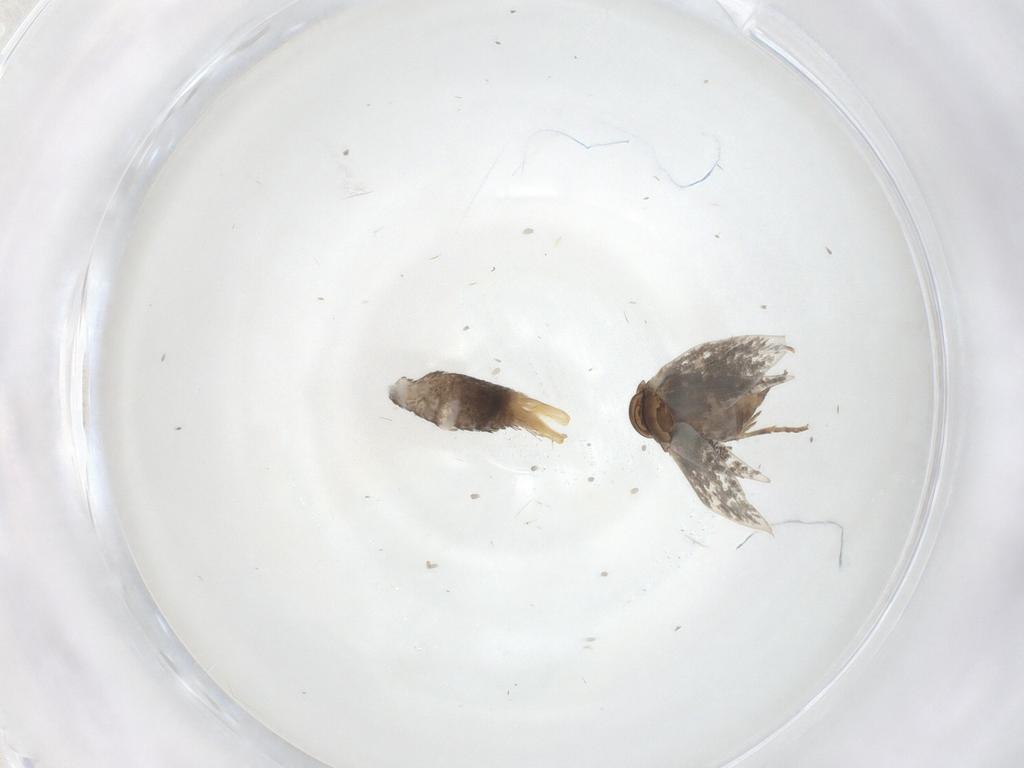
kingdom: Animalia
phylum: Arthropoda
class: Insecta
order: Lepidoptera
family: Elachistidae
